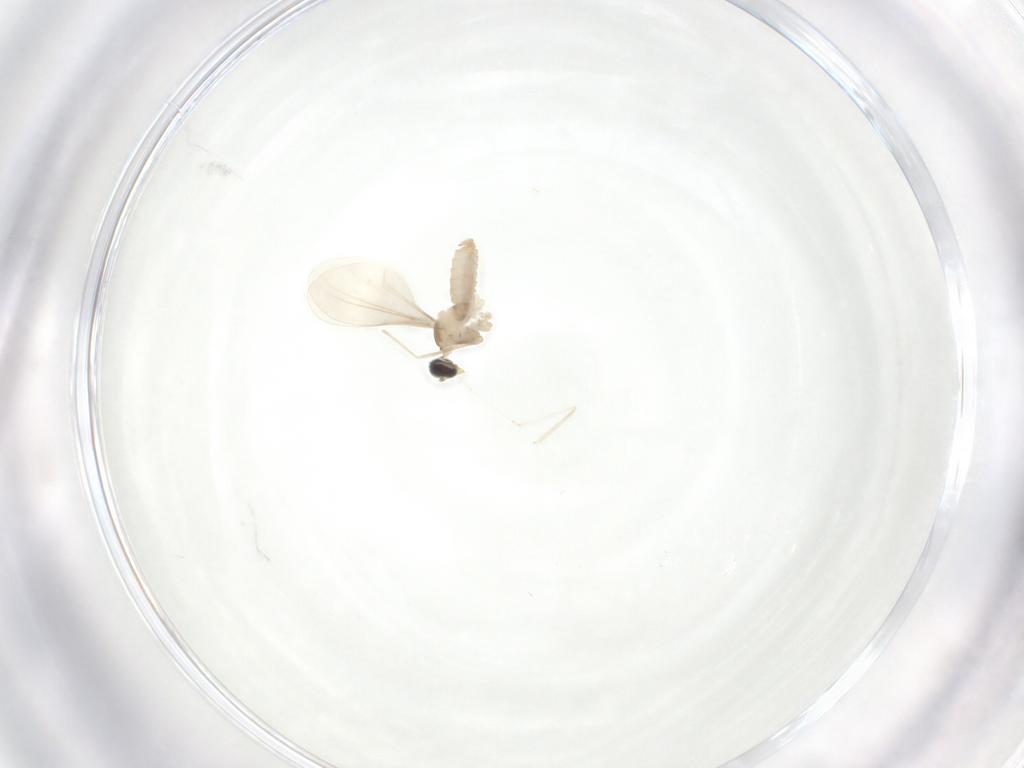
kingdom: Animalia
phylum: Arthropoda
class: Insecta
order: Diptera
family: Cecidomyiidae
